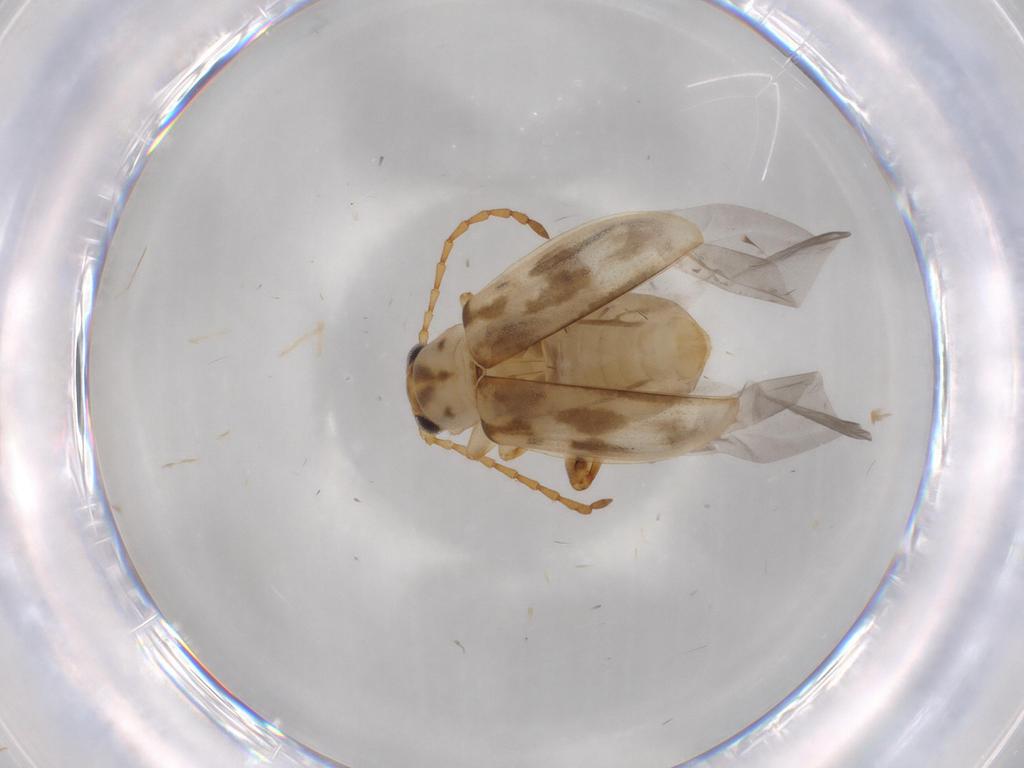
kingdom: Animalia
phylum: Arthropoda
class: Insecta
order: Coleoptera
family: Chrysomelidae
